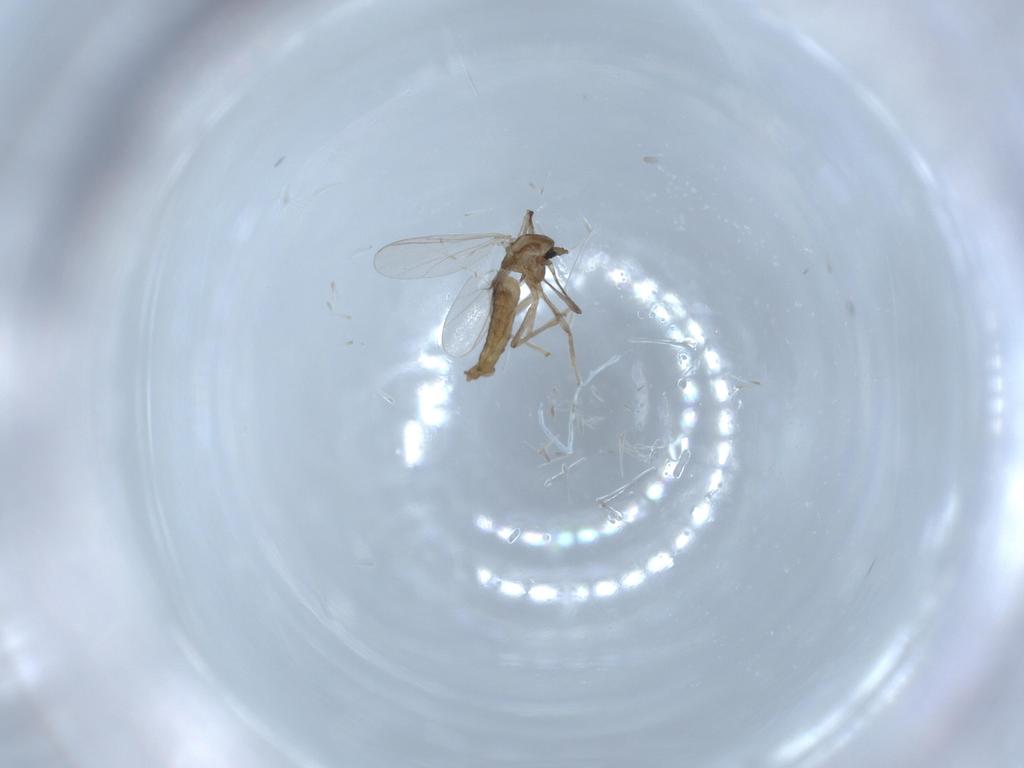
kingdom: Animalia
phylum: Arthropoda
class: Insecta
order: Diptera
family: Chironomidae
